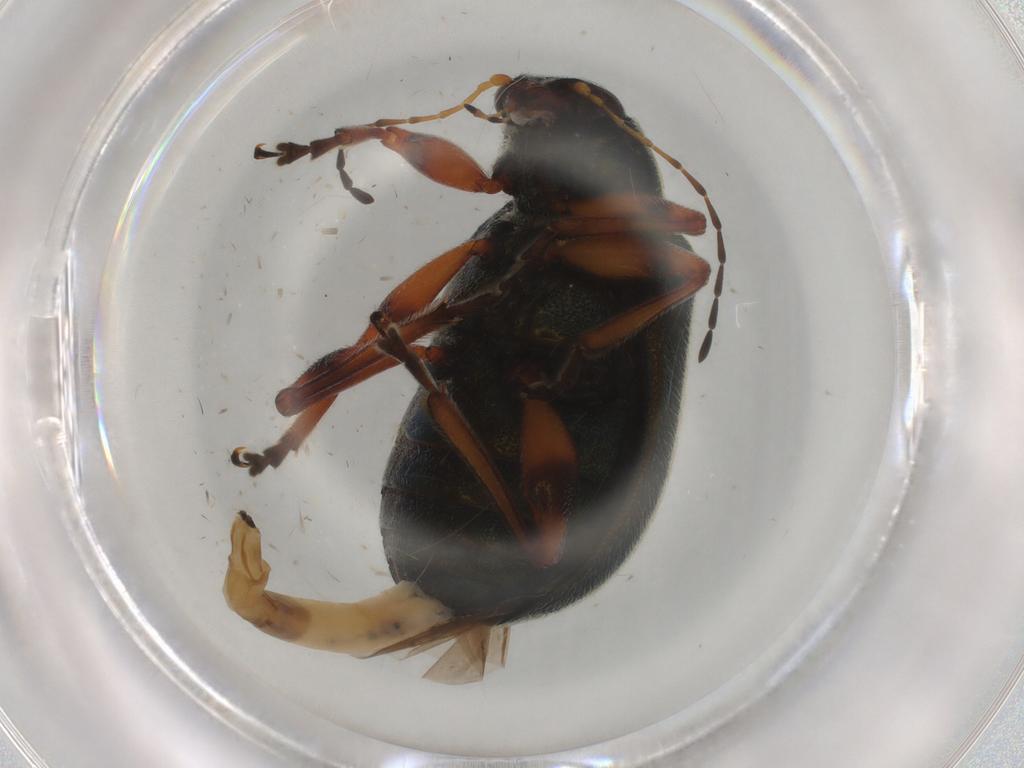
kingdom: Animalia
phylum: Arthropoda
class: Insecta
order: Coleoptera
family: Chrysomelidae
